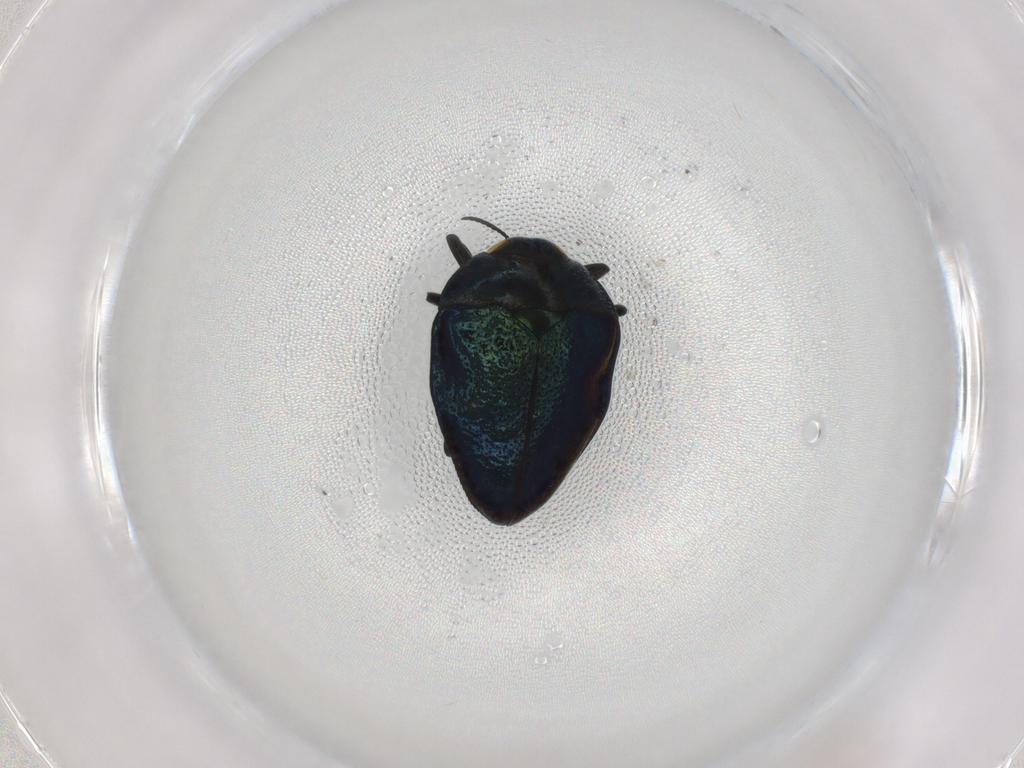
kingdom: Animalia
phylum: Arthropoda
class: Insecta
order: Coleoptera
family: Buprestidae
